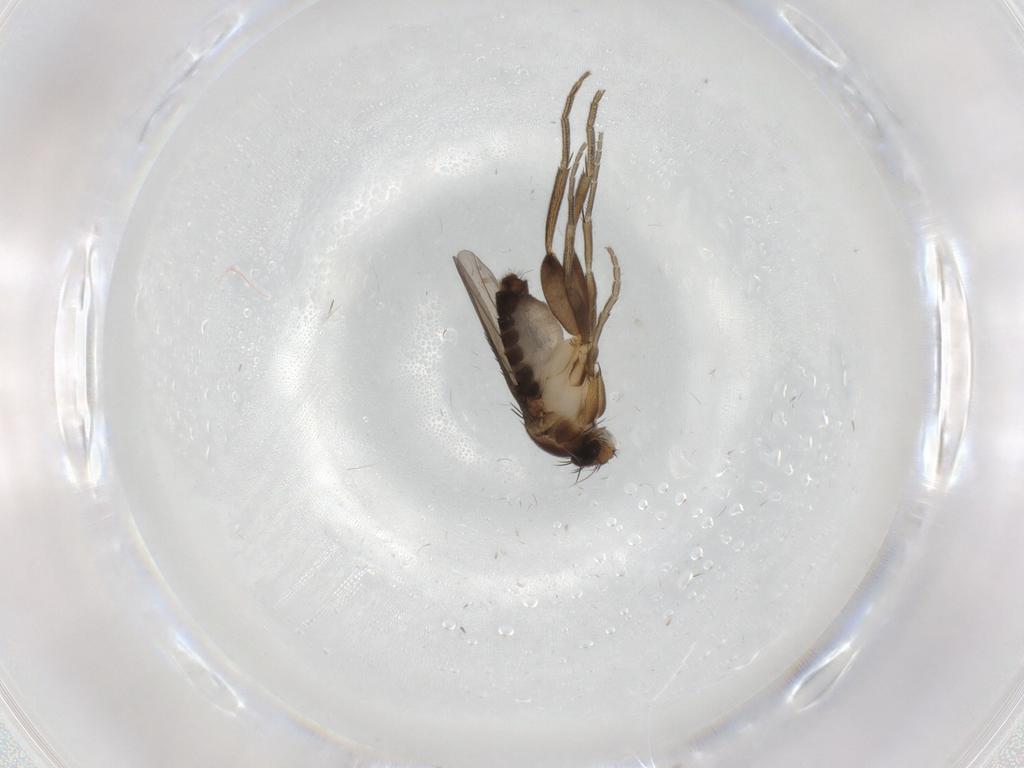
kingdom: Animalia
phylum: Arthropoda
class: Insecta
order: Diptera
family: Phoridae
